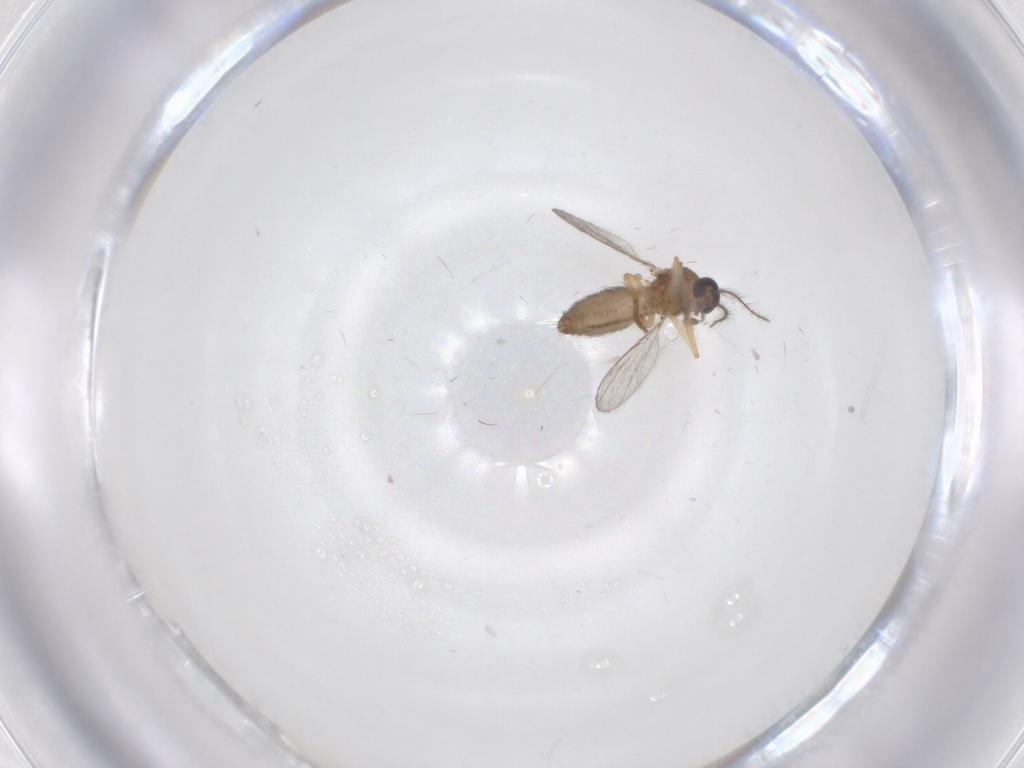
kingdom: Animalia
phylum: Arthropoda
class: Insecta
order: Diptera
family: Ceratopogonidae
